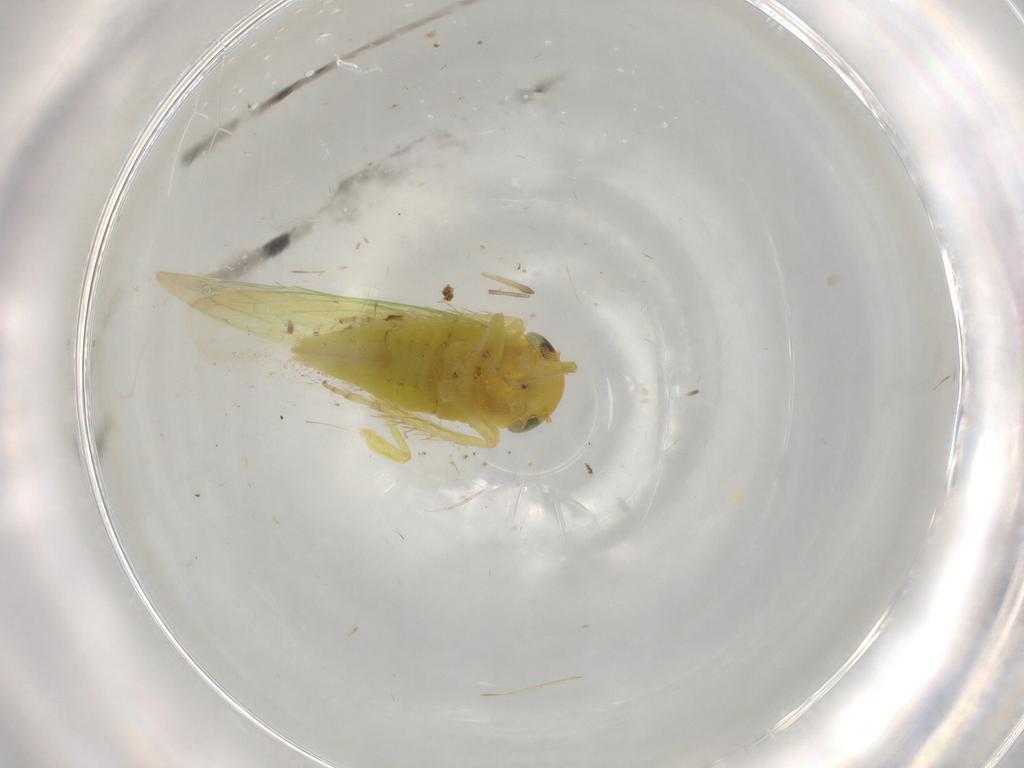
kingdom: Animalia
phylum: Arthropoda
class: Insecta
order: Hemiptera
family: Cicadellidae
